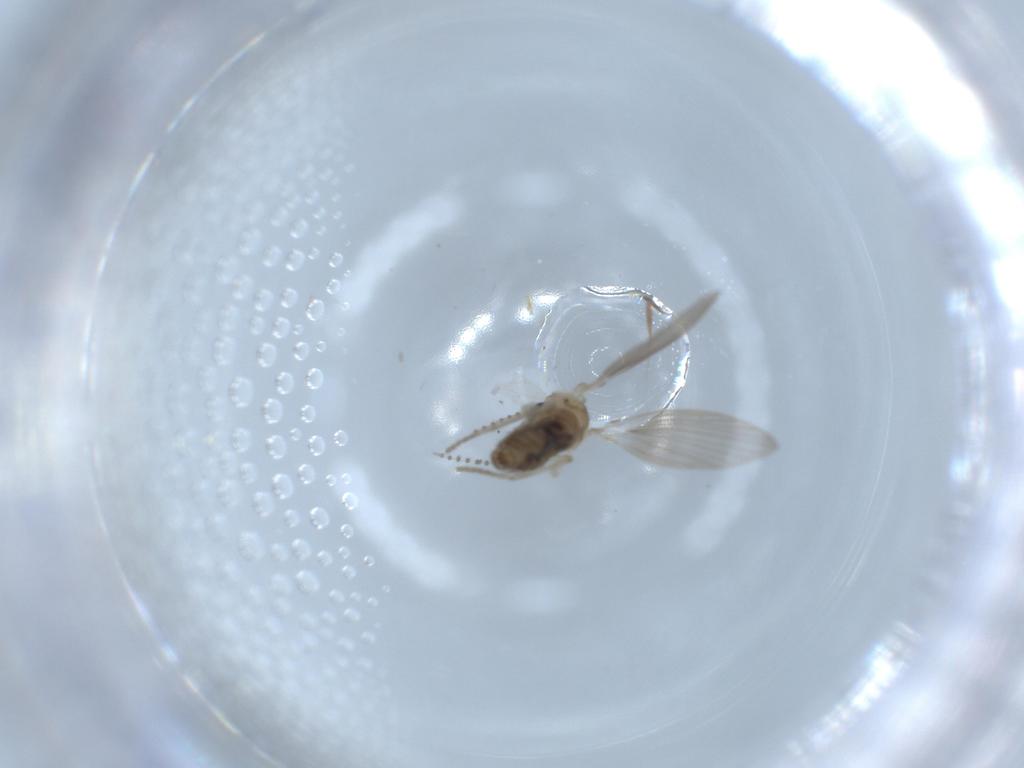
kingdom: Animalia
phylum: Arthropoda
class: Insecta
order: Diptera
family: Psychodidae
